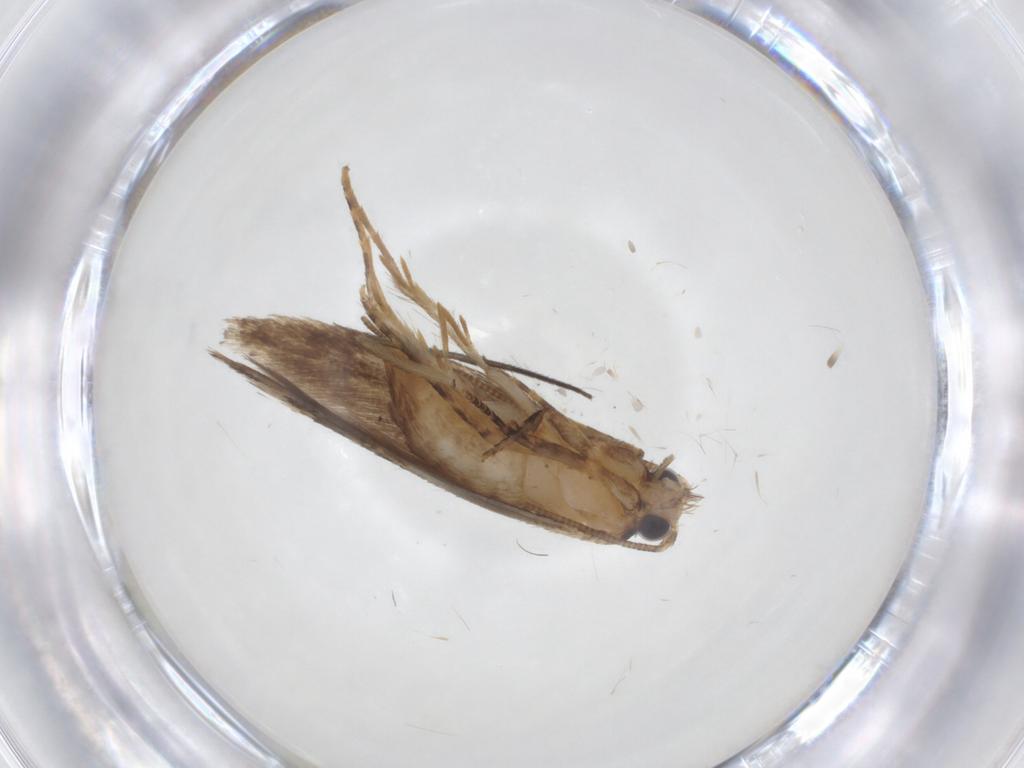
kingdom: Animalia
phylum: Arthropoda
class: Insecta
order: Lepidoptera
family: Tineidae
